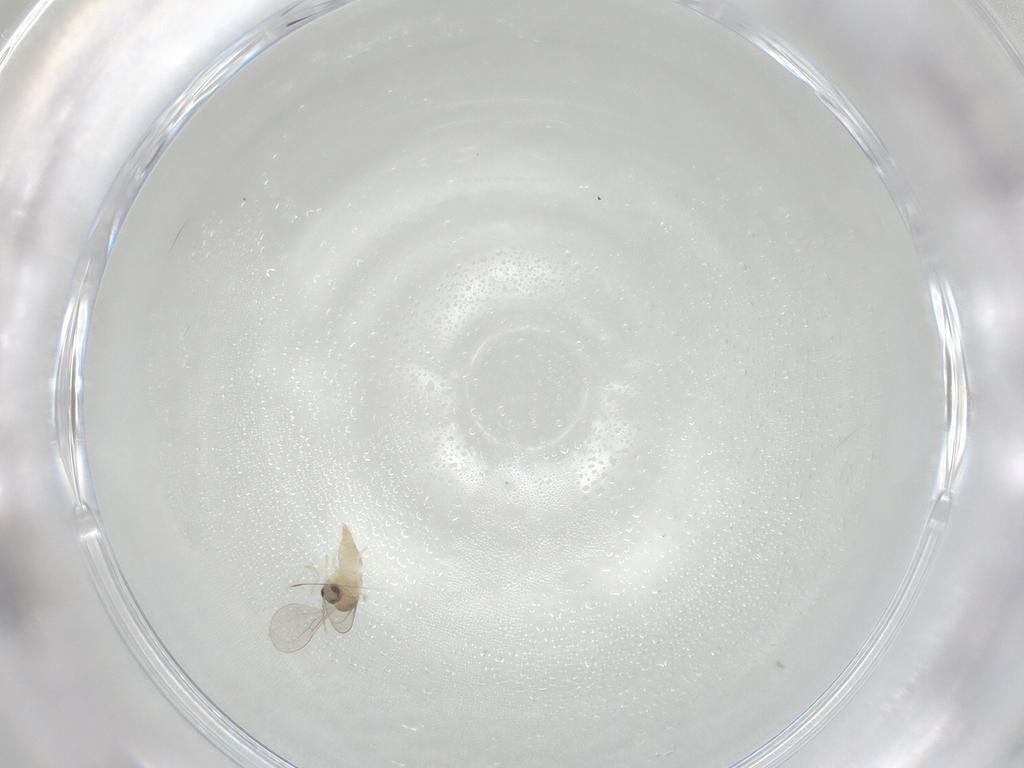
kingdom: Animalia
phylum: Arthropoda
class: Insecta
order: Diptera
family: Cecidomyiidae
